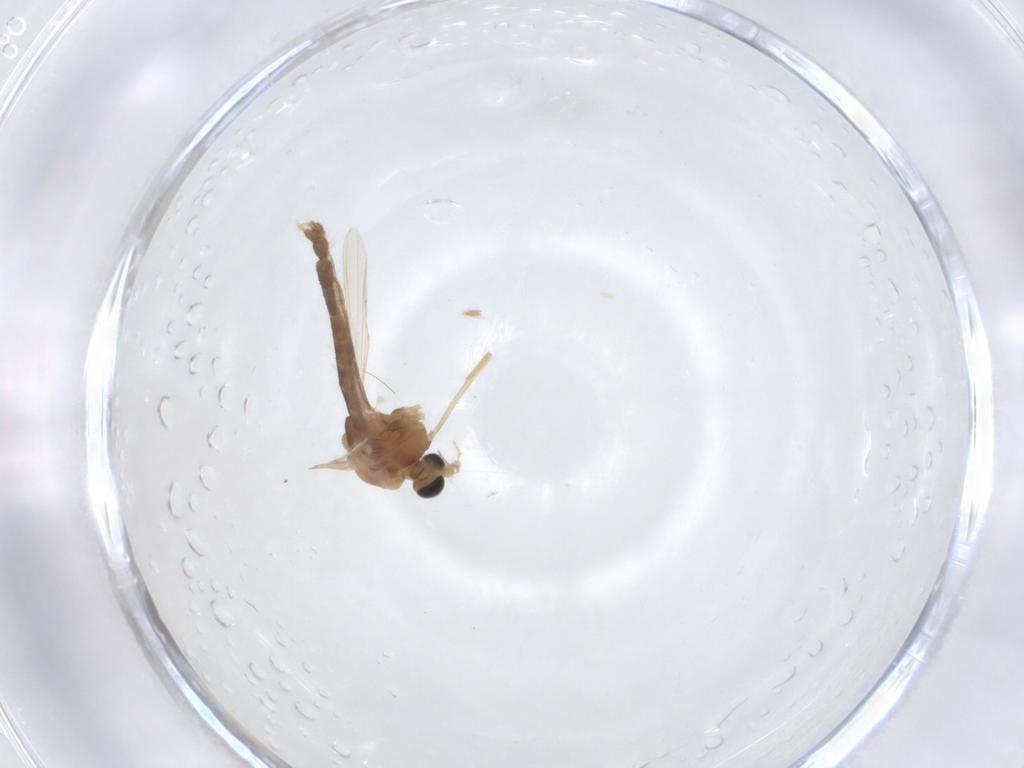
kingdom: Animalia
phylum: Arthropoda
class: Insecta
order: Diptera
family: Chironomidae
